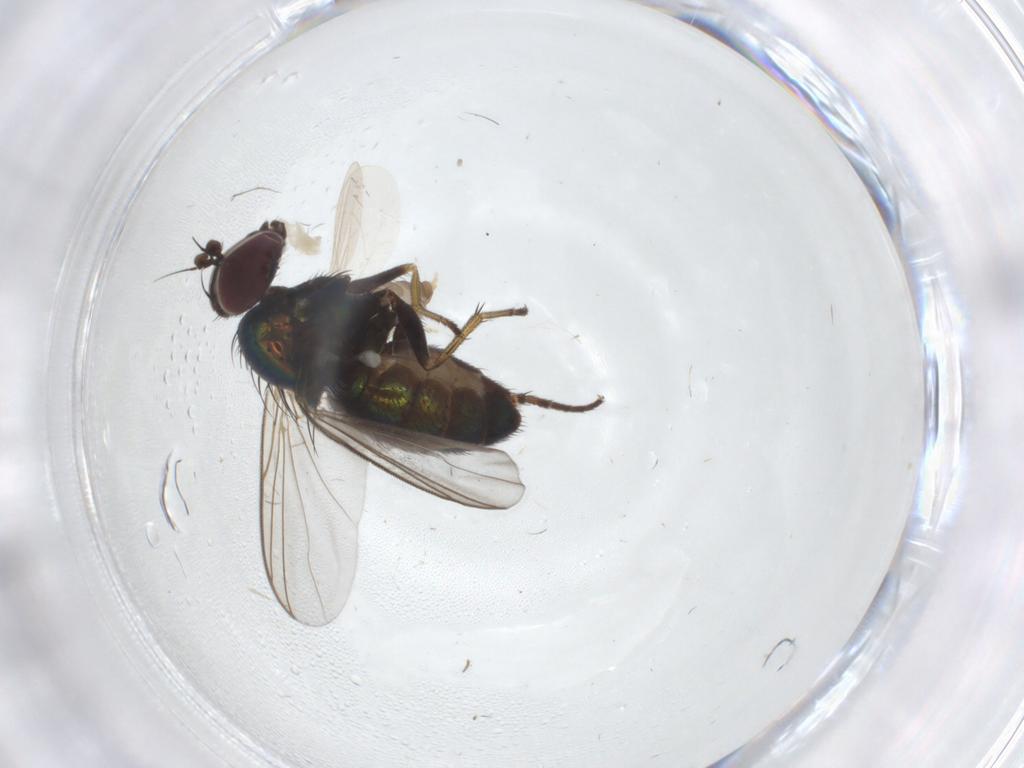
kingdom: Animalia
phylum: Arthropoda
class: Insecta
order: Diptera
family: Dolichopodidae
